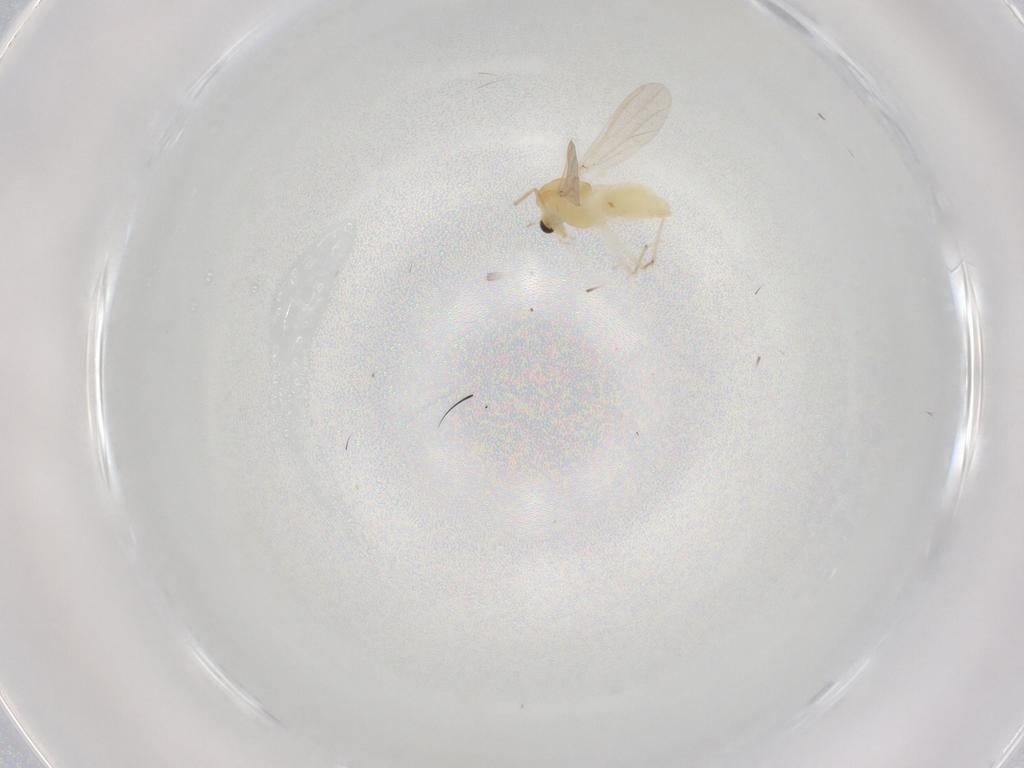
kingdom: Animalia
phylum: Arthropoda
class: Insecta
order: Diptera
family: Chironomidae
